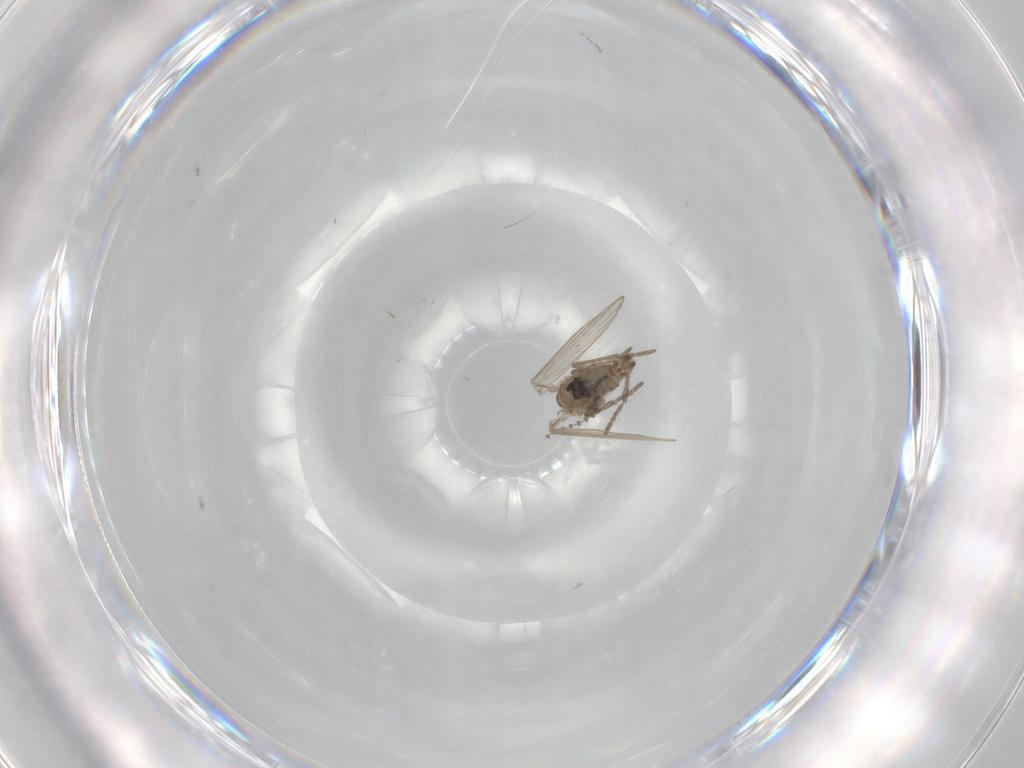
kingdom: Animalia
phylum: Arthropoda
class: Insecta
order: Diptera
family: Psychodidae
